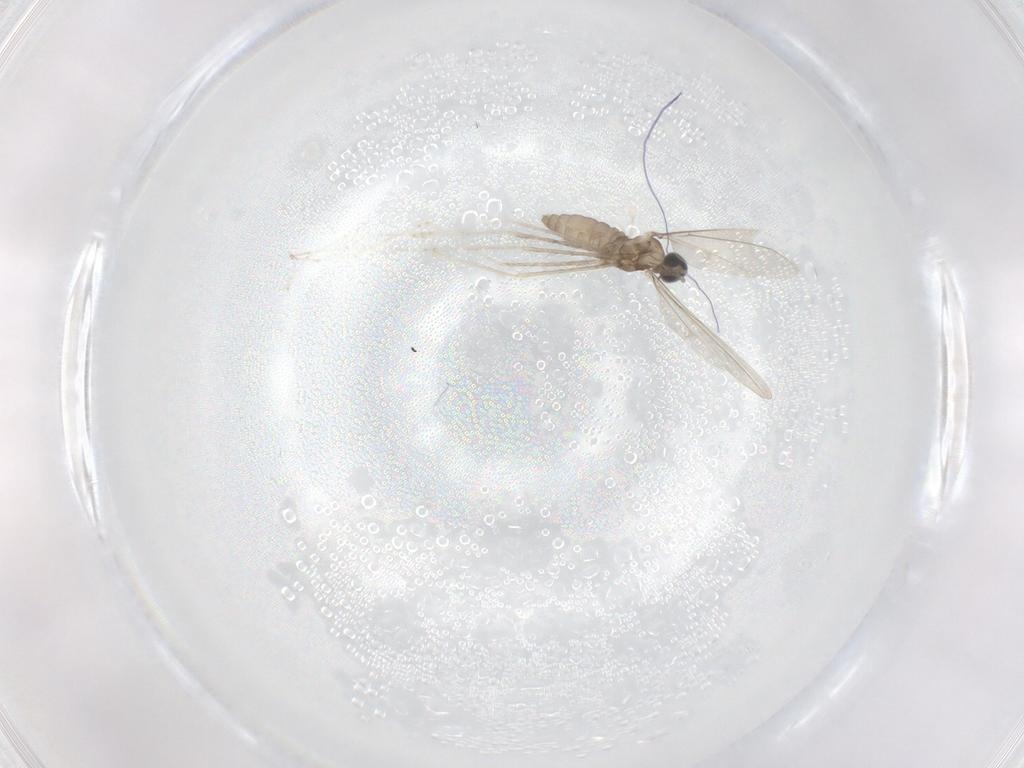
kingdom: Animalia
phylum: Arthropoda
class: Insecta
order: Diptera
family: Cecidomyiidae
